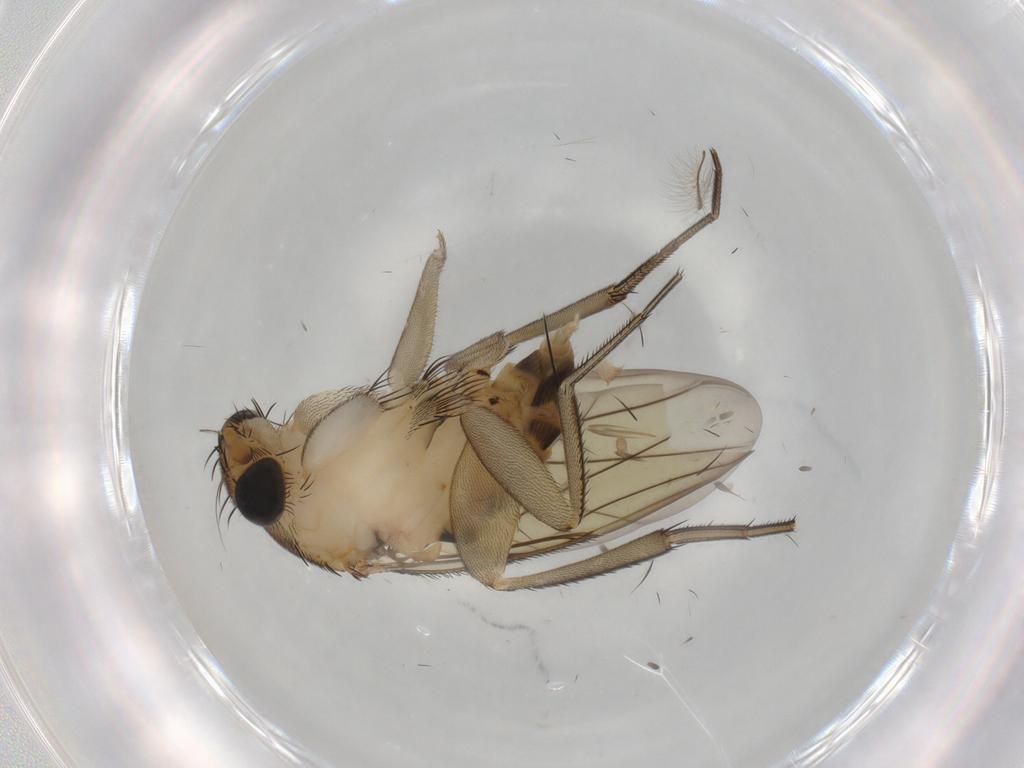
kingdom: Animalia
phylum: Arthropoda
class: Insecta
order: Diptera
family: Phoridae
